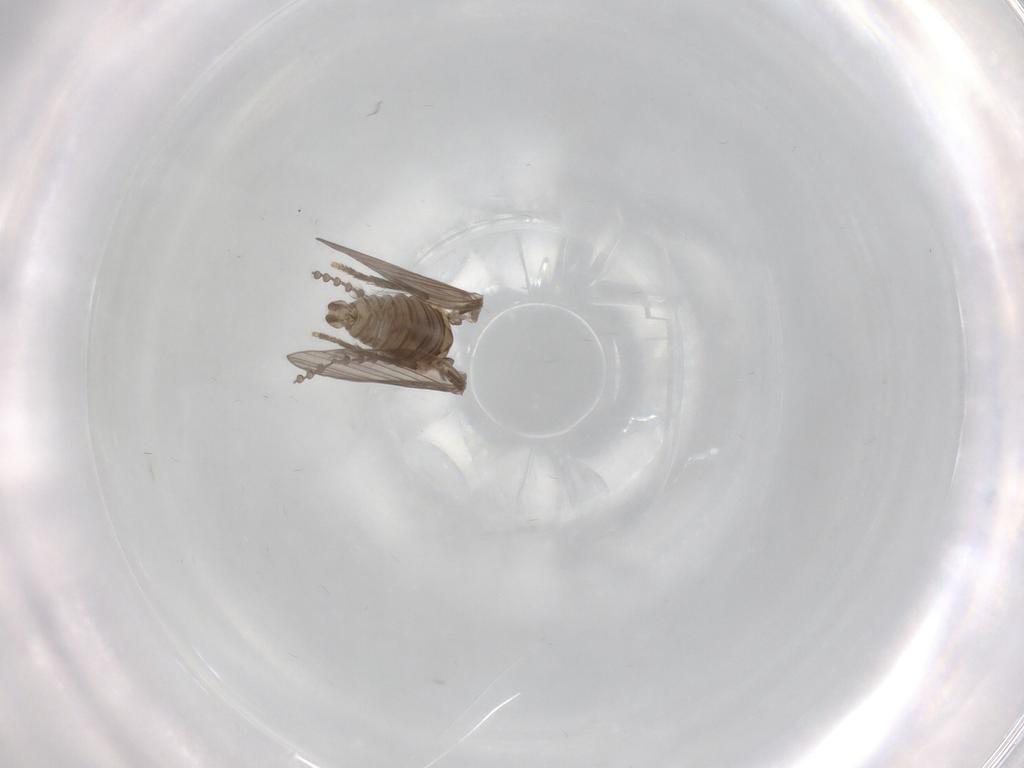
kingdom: Animalia
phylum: Arthropoda
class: Insecta
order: Diptera
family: Psychodidae
